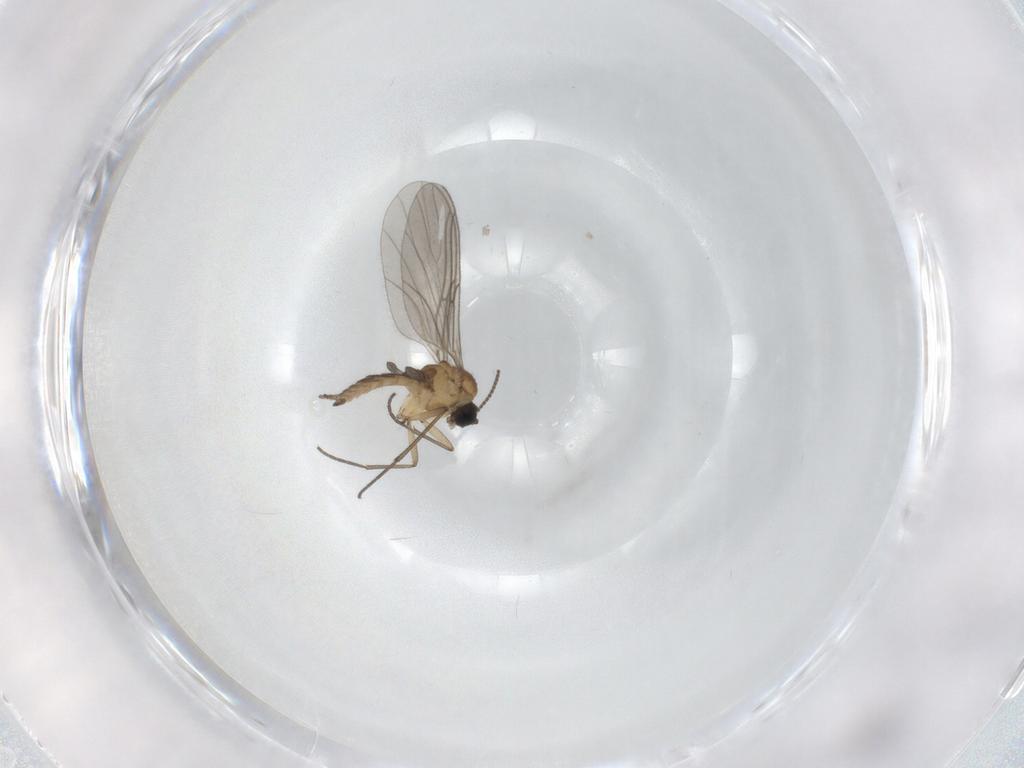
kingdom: Animalia
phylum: Arthropoda
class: Insecta
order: Diptera
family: Sciaridae
